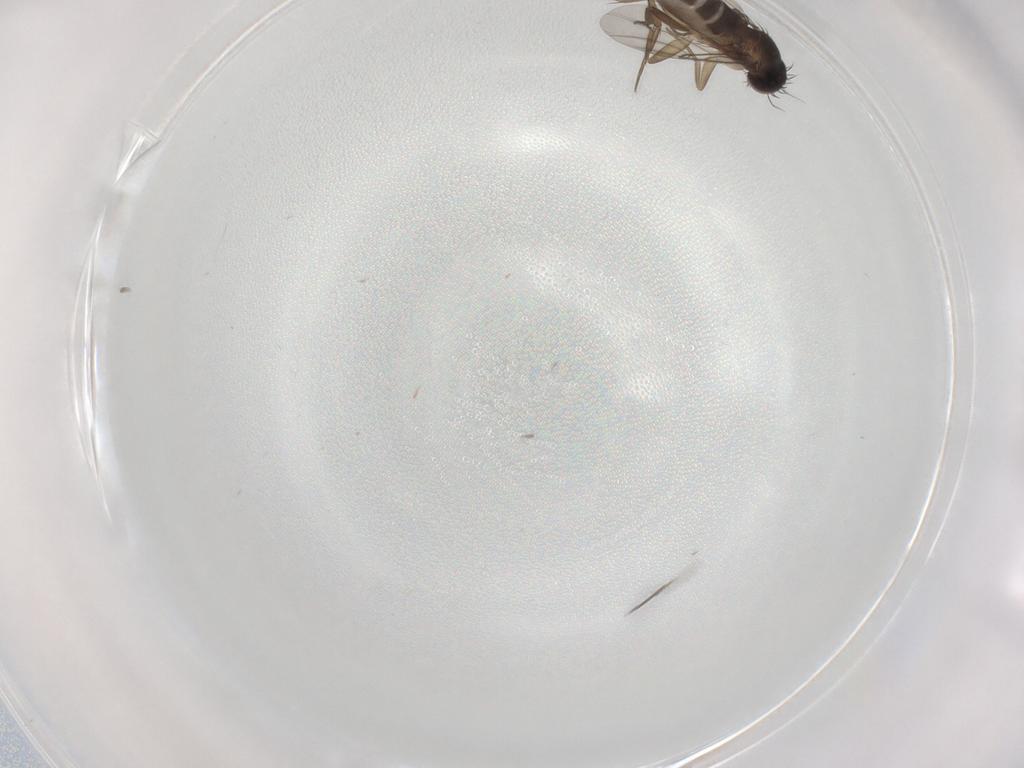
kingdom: Animalia
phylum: Arthropoda
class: Insecta
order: Diptera
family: Phoridae
